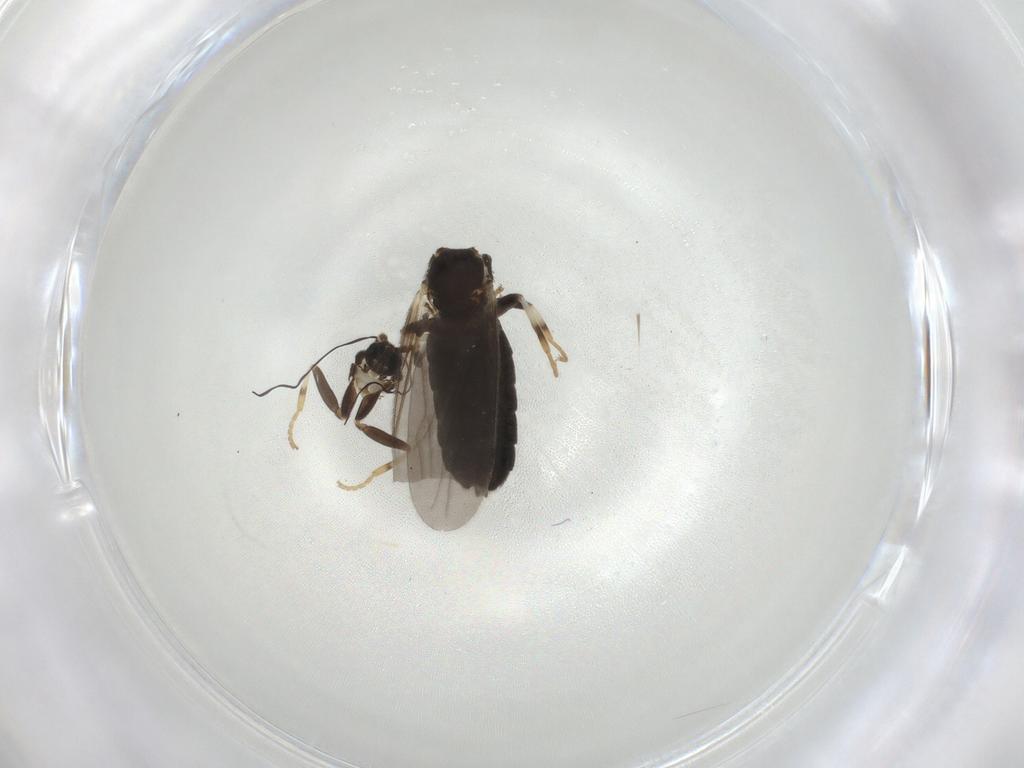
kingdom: Animalia
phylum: Arthropoda
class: Insecta
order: Diptera
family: Scatopsidae
